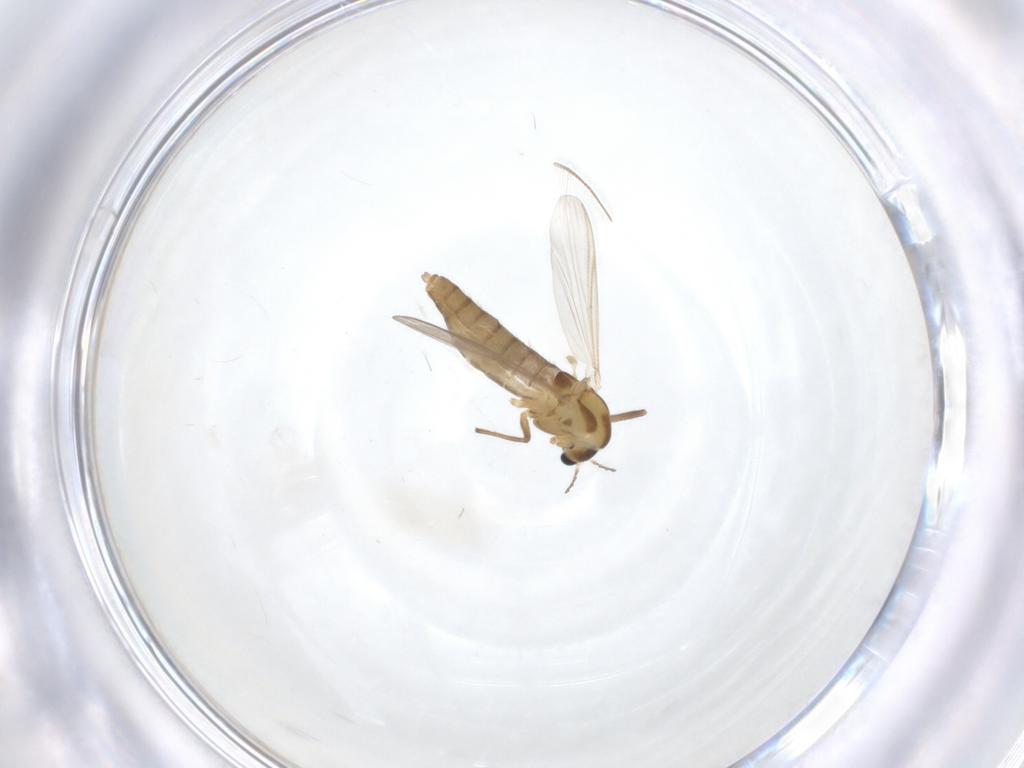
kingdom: Animalia
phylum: Arthropoda
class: Insecta
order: Diptera
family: Chironomidae
